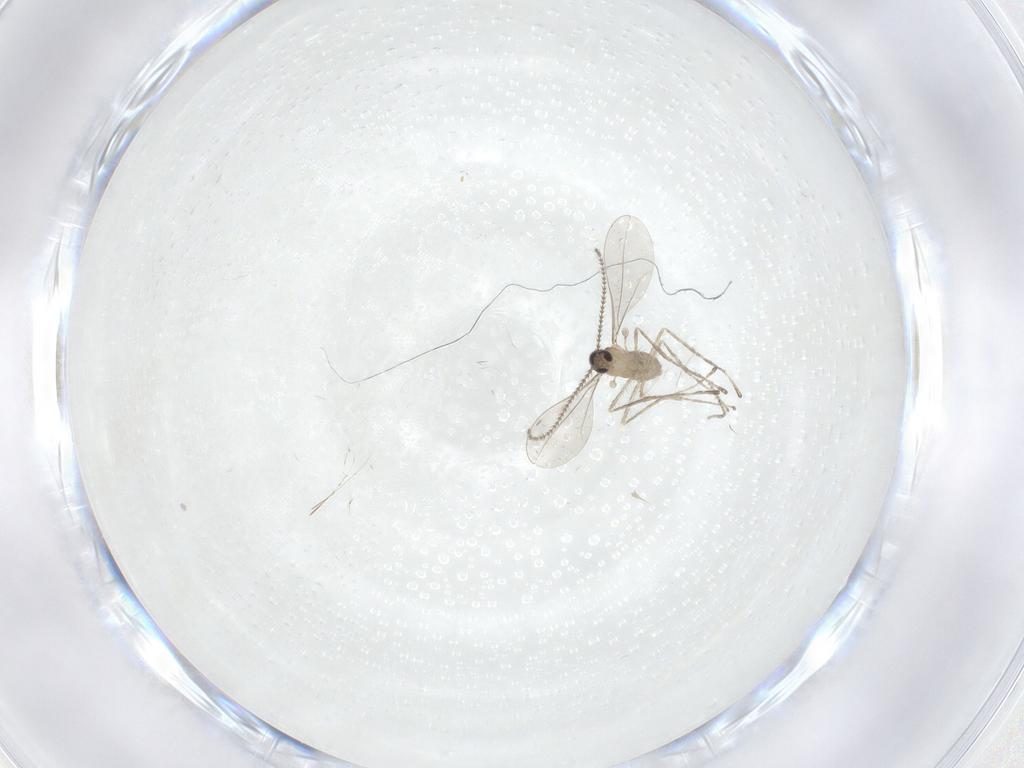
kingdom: Animalia
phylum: Arthropoda
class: Insecta
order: Diptera
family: Cecidomyiidae
